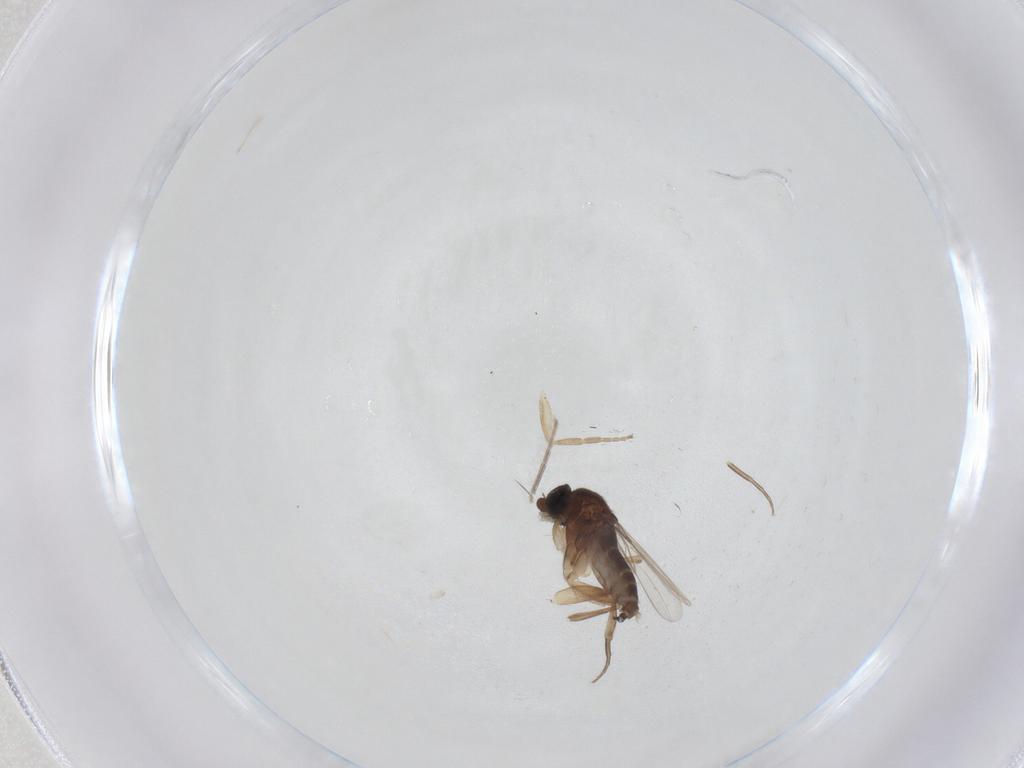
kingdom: Animalia
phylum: Arthropoda
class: Insecta
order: Diptera
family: Phoridae
